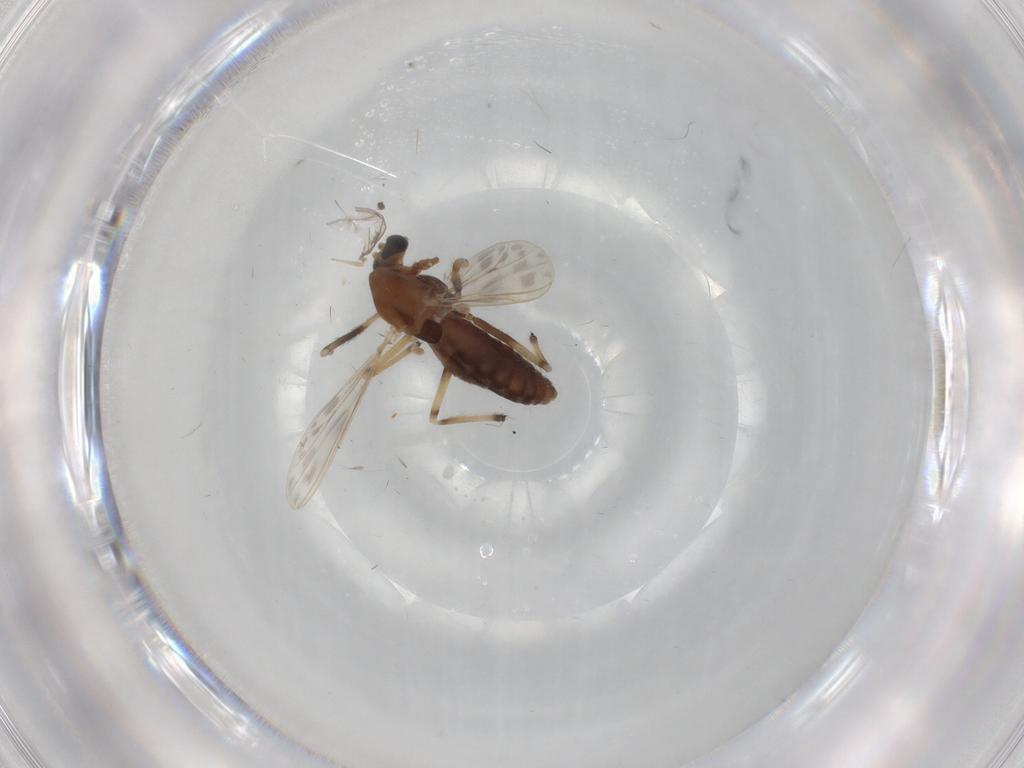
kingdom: Animalia
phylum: Arthropoda
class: Insecta
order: Diptera
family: Chironomidae
